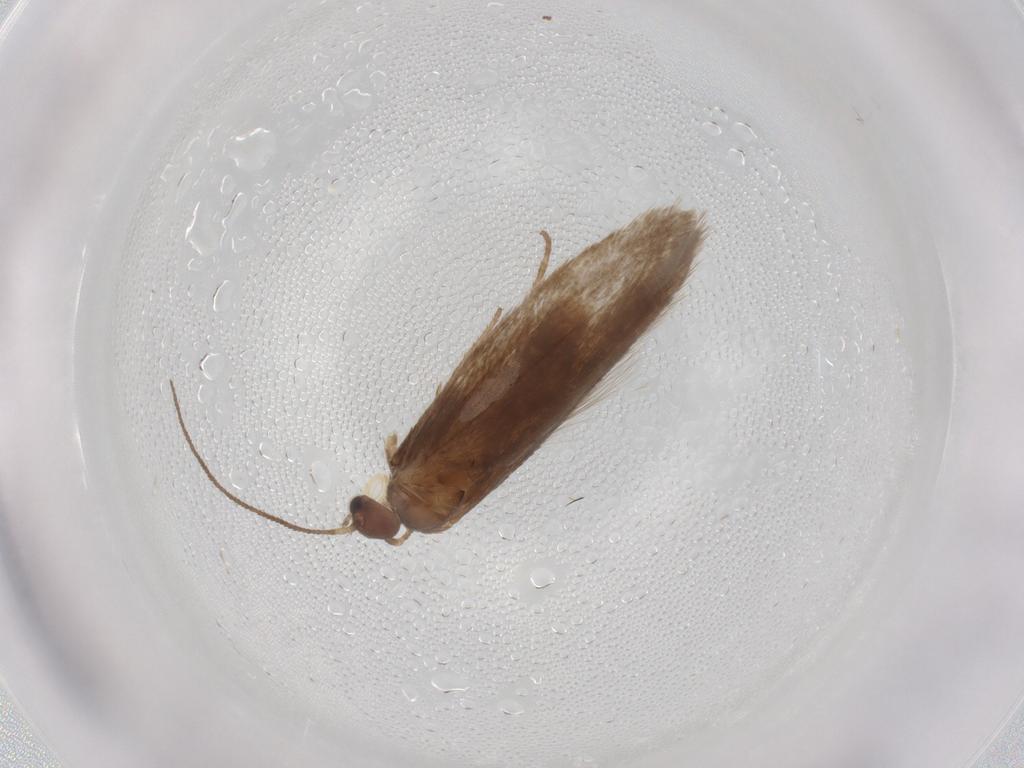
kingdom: Animalia
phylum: Arthropoda
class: Insecta
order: Lepidoptera
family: Limacodidae
